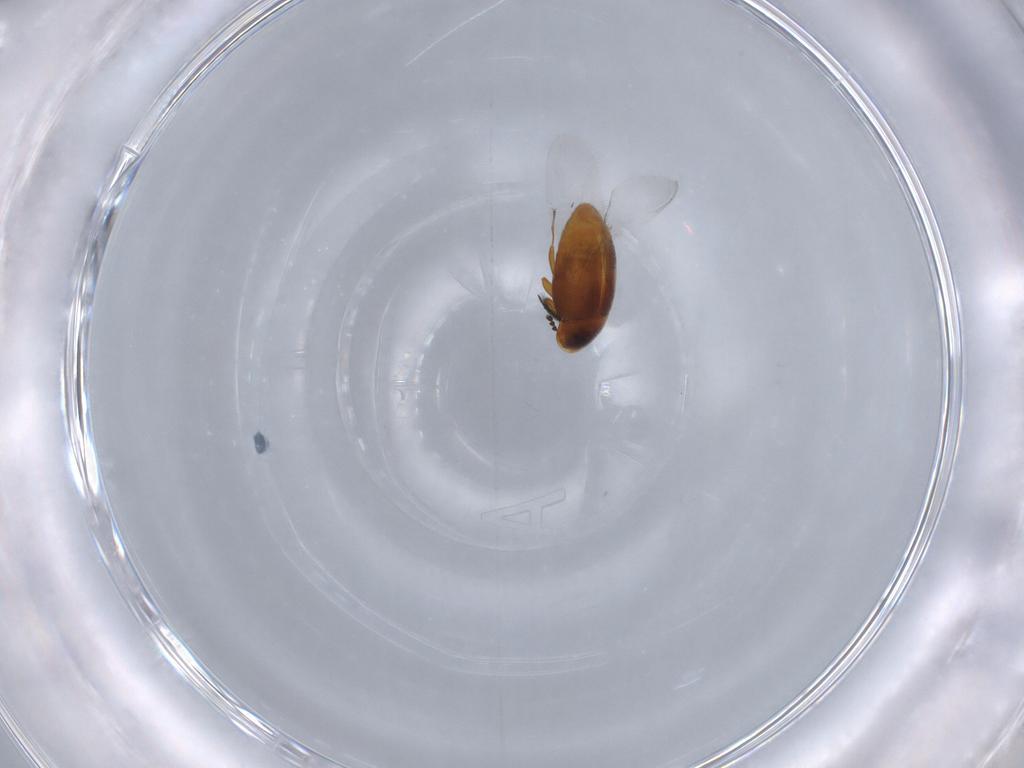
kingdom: Animalia
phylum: Arthropoda
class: Insecta
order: Coleoptera
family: Corylophidae
